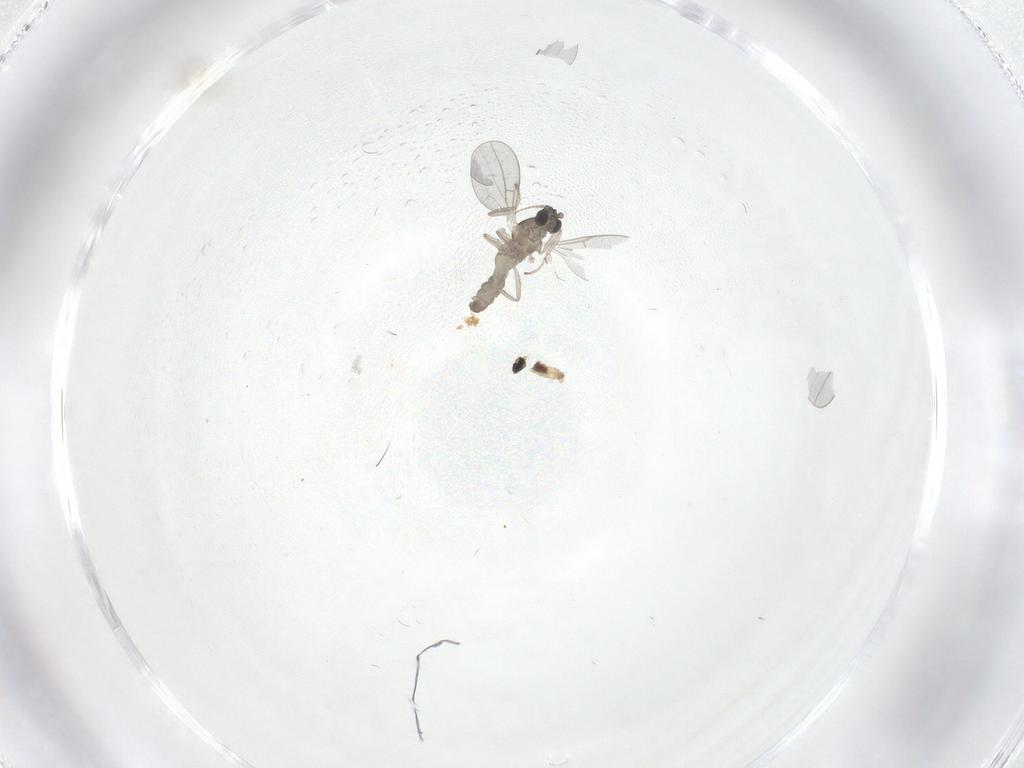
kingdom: Animalia
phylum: Arthropoda
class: Insecta
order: Diptera
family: Cecidomyiidae
